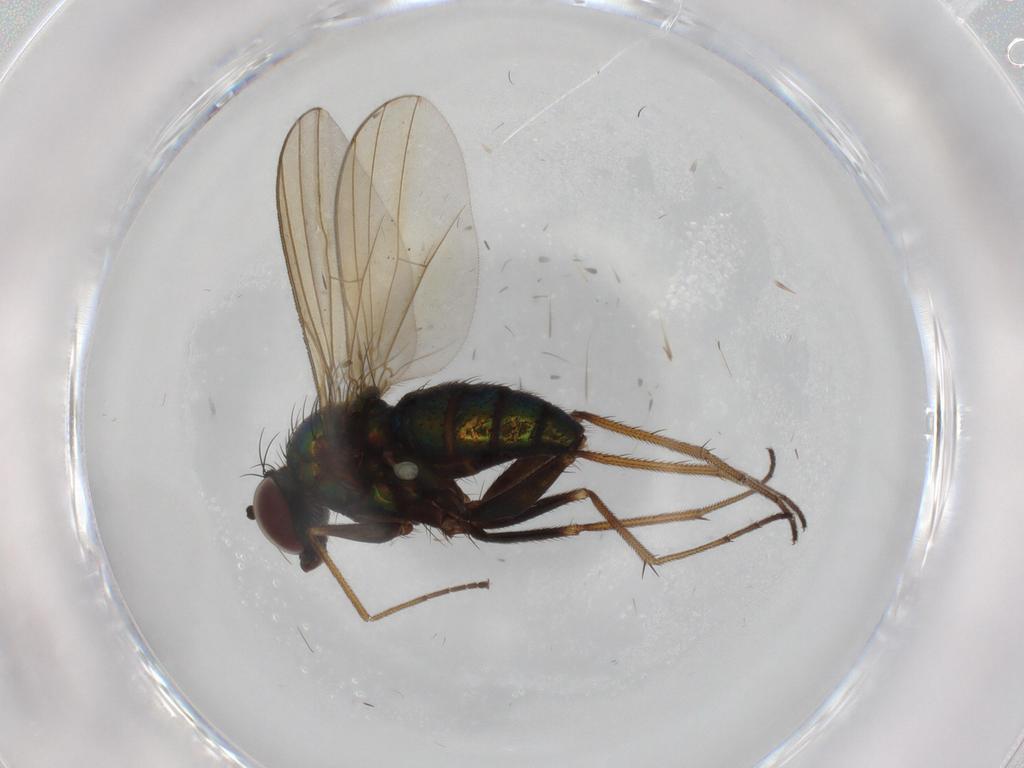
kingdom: Animalia
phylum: Arthropoda
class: Insecta
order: Diptera
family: Dolichopodidae
